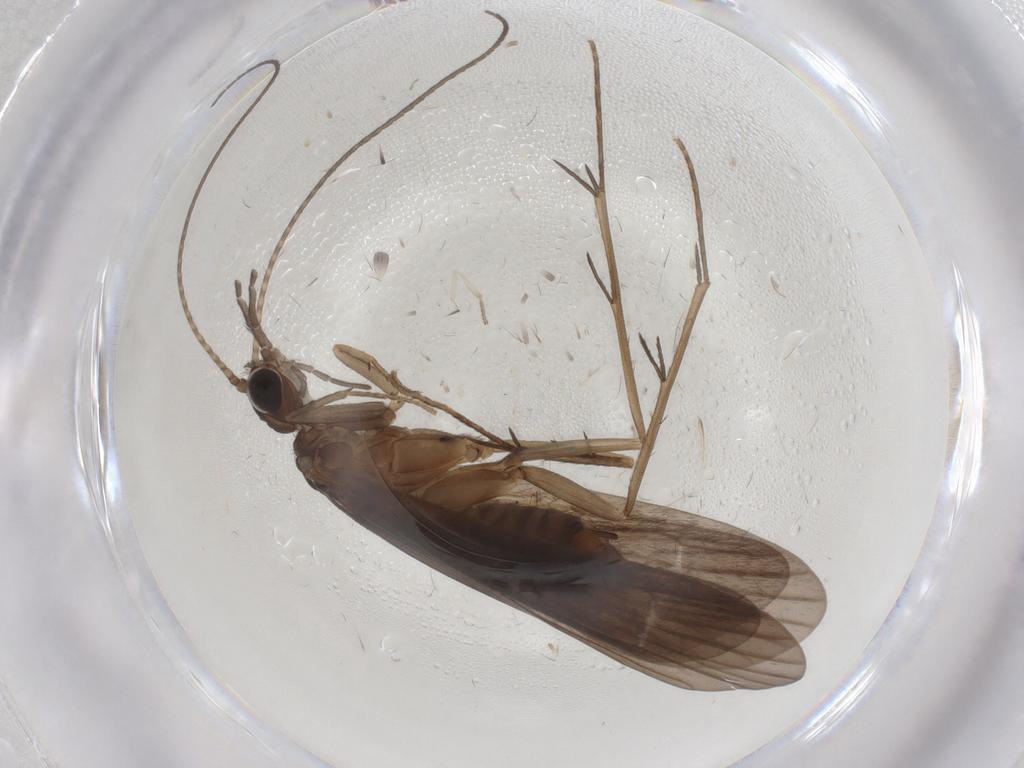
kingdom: Animalia
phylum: Arthropoda
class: Insecta
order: Trichoptera
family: Philopotamidae
